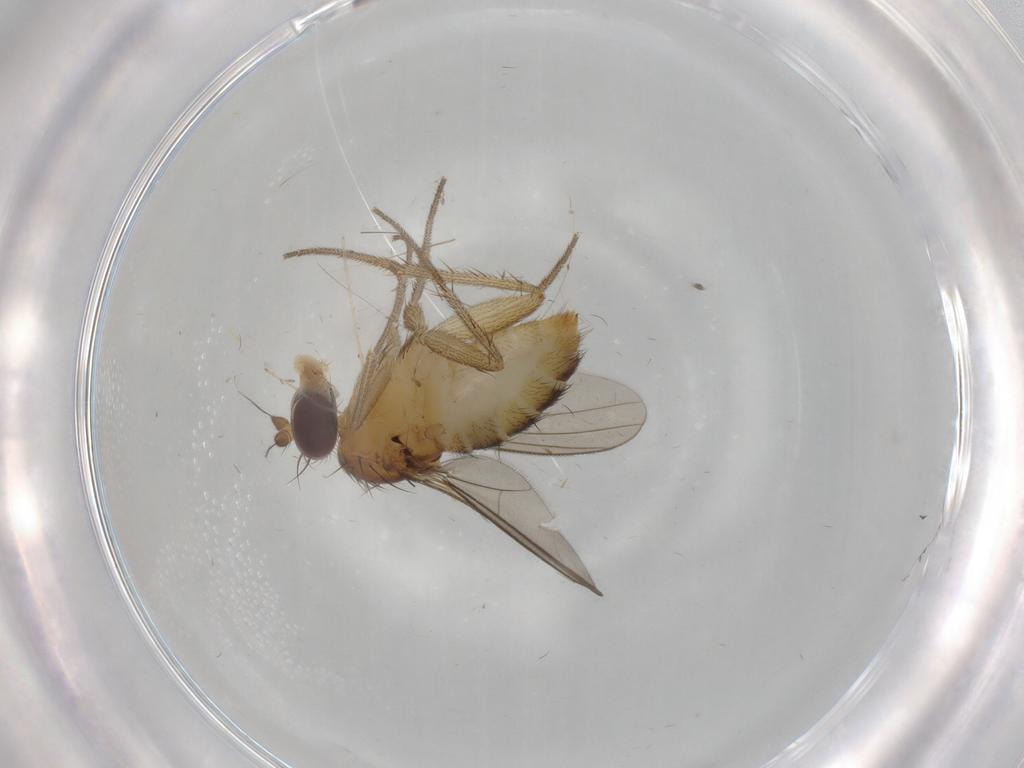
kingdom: Animalia
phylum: Arthropoda
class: Insecta
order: Diptera
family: Dolichopodidae
